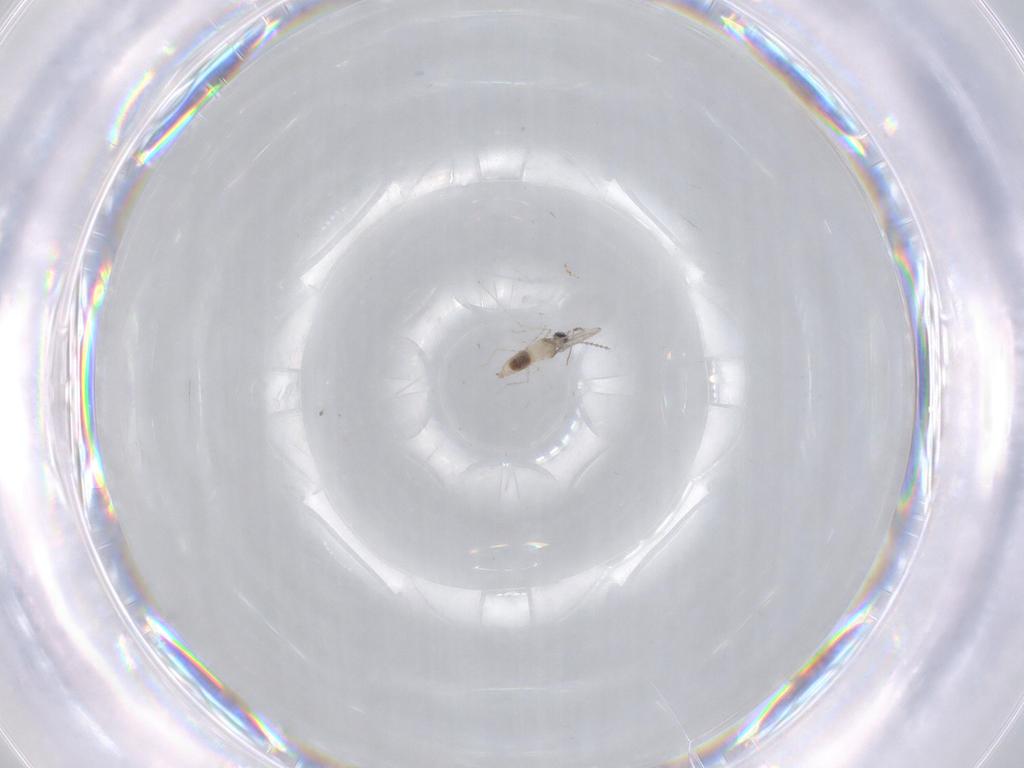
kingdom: Animalia
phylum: Arthropoda
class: Insecta
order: Diptera
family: Cecidomyiidae
